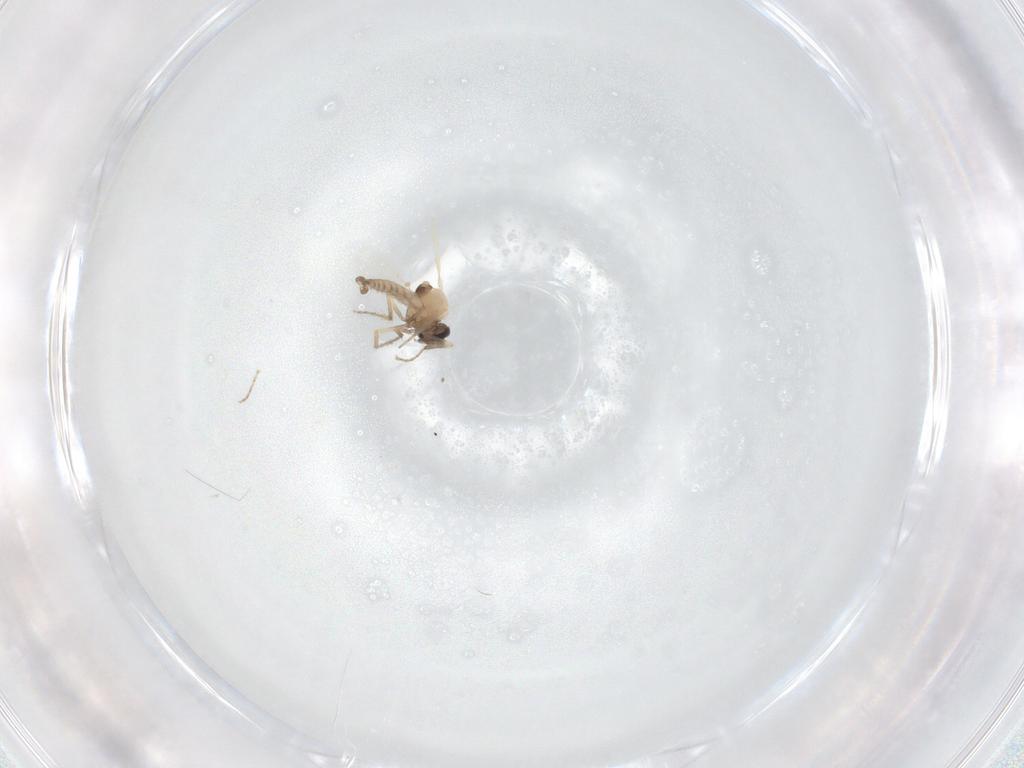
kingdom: Animalia
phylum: Arthropoda
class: Insecta
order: Diptera
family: Ceratopogonidae
